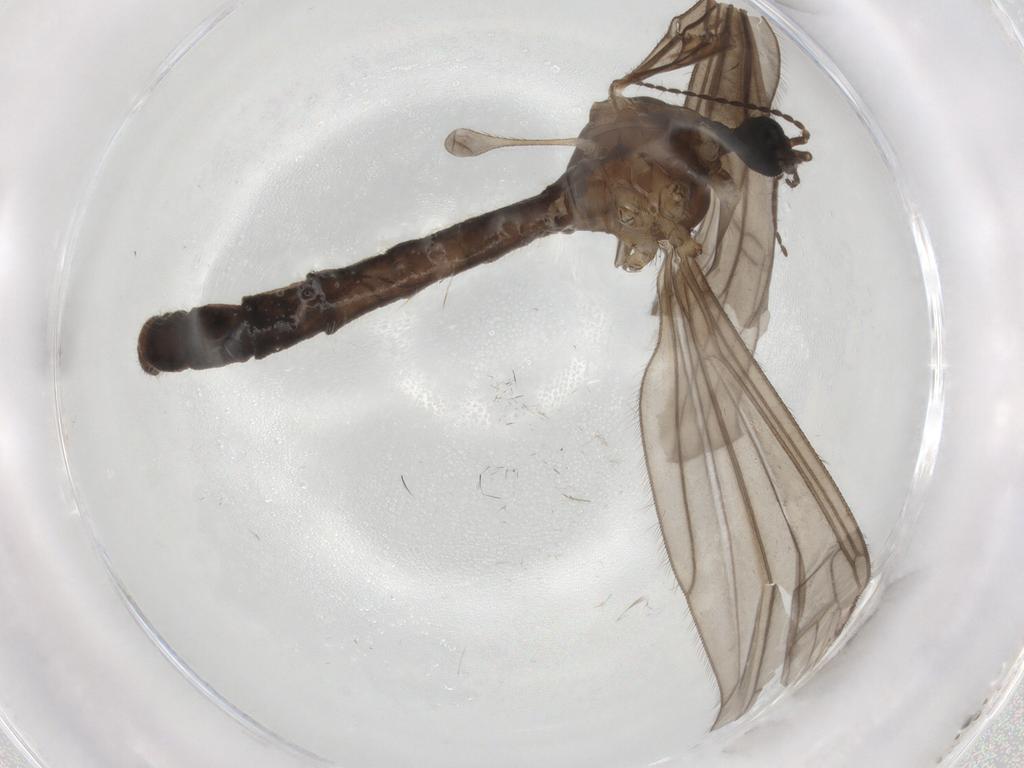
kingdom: Animalia
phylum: Arthropoda
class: Insecta
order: Diptera
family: Limoniidae
